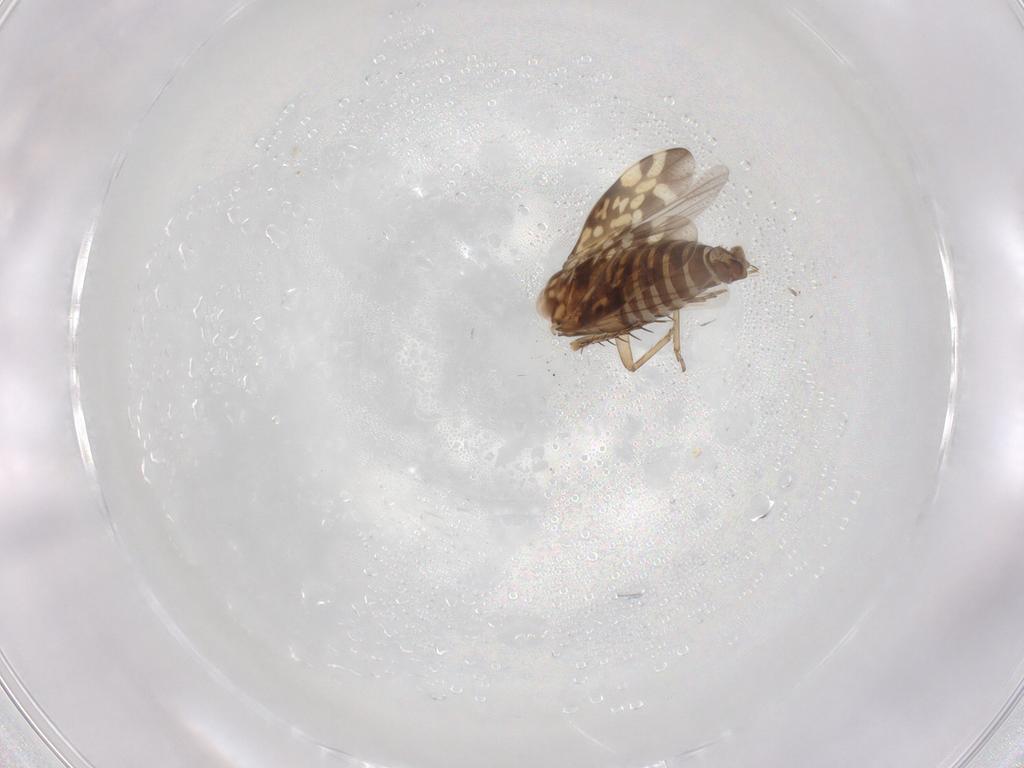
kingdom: Animalia
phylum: Arthropoda
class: Insecta
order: Hemiptera
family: Cicadellidae
